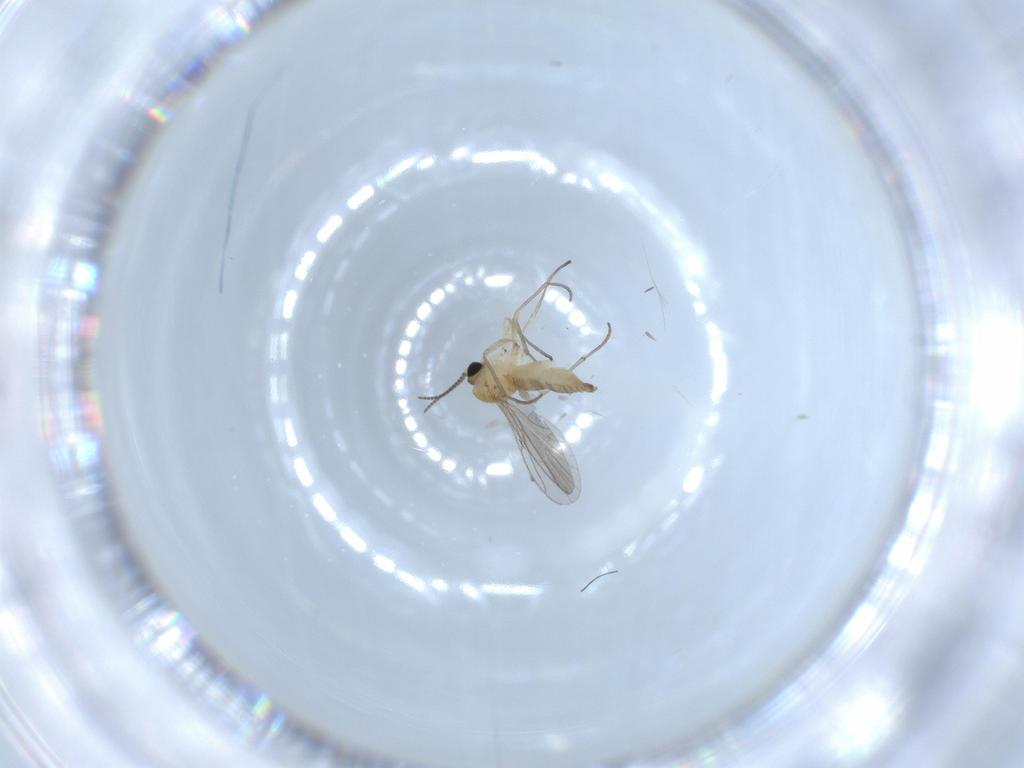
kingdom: Animalia
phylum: Arthropoda
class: Insecta
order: Diptera
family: Sciaridae
